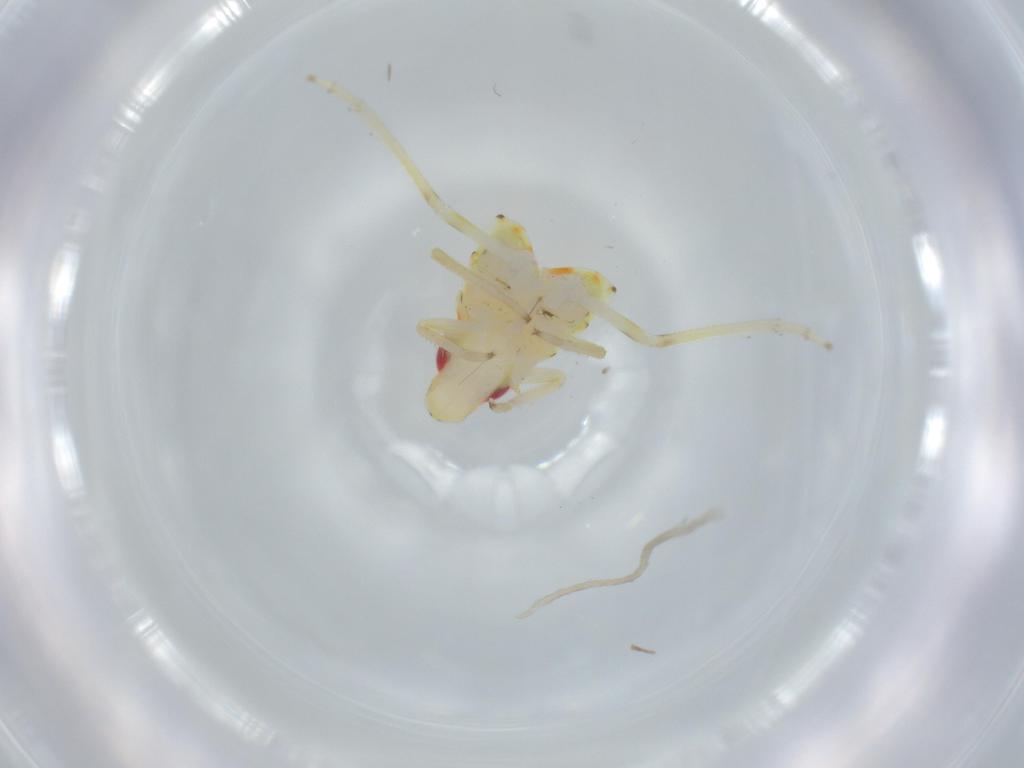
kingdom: Animalia
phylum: Arthropoda
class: Insecta
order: Hemiptera
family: Tropiduchidae
